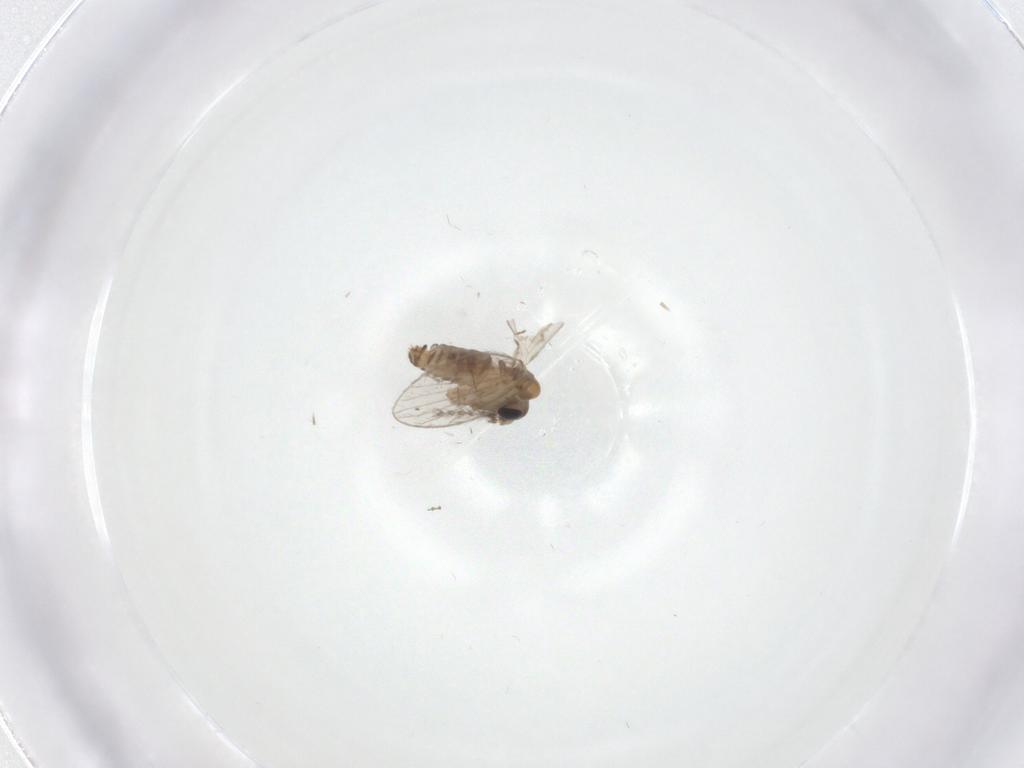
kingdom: Animalia
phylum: Arthropoda
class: Insecta
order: Diptera
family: Psychodidae
